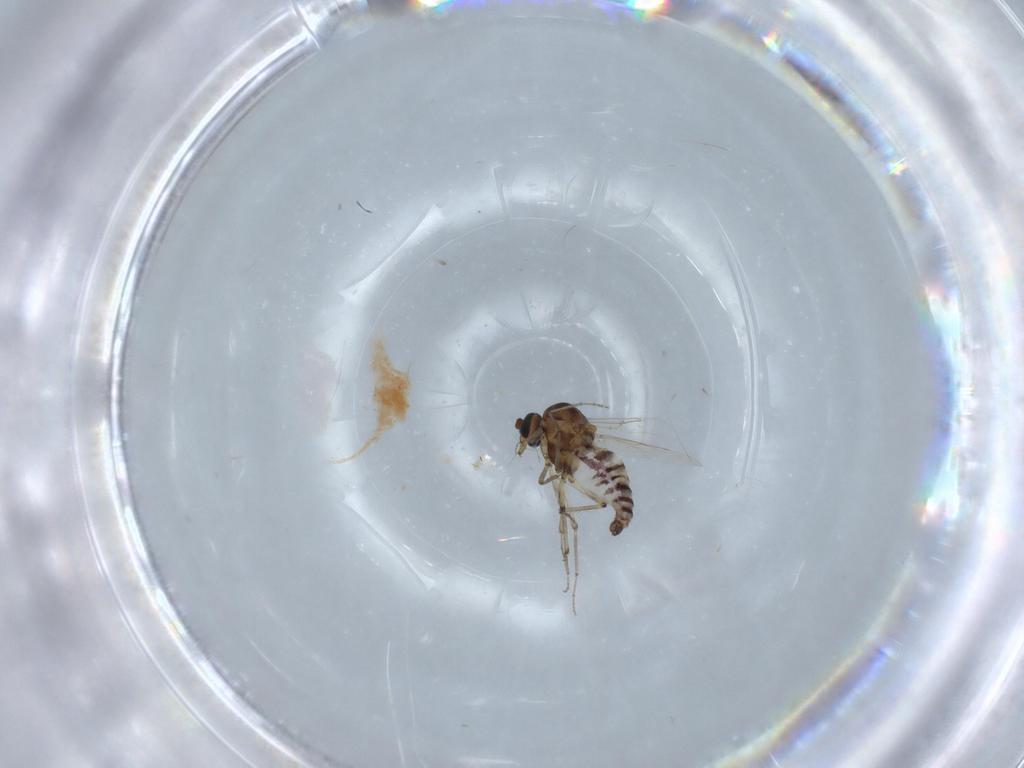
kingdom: Animalia
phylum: Arthropoda
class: Insecta
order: Diptera
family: Ceratopogonidae
